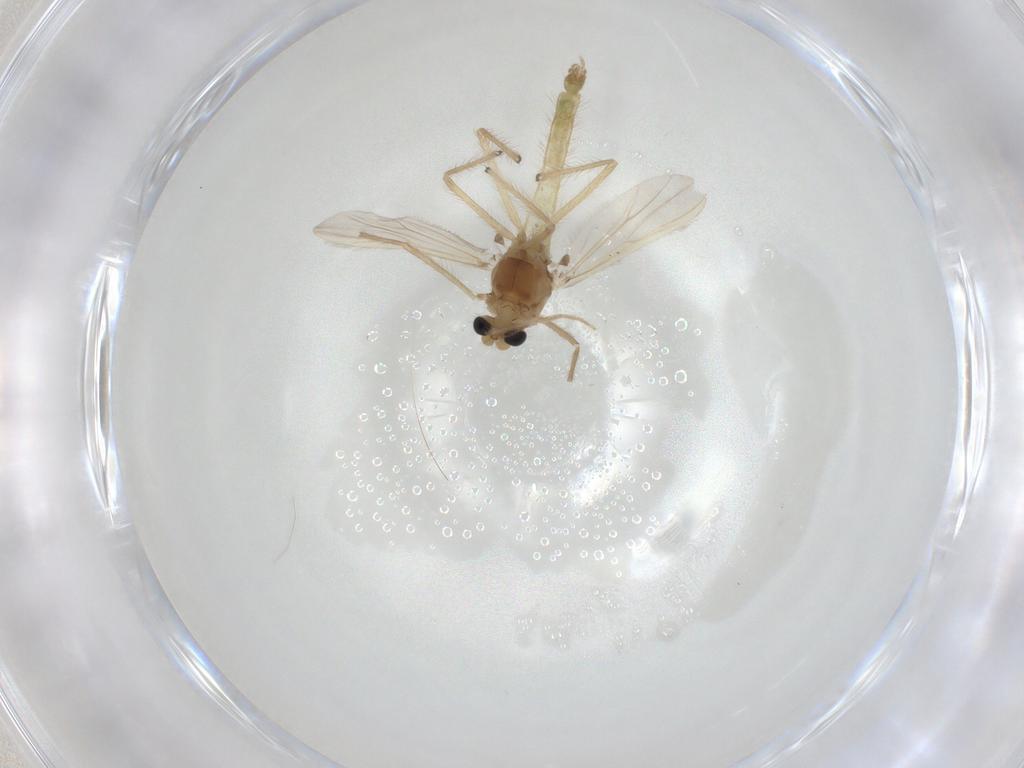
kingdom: Animalia
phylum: Arthropoda
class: Insecta
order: Diptera
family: Chironomidae
